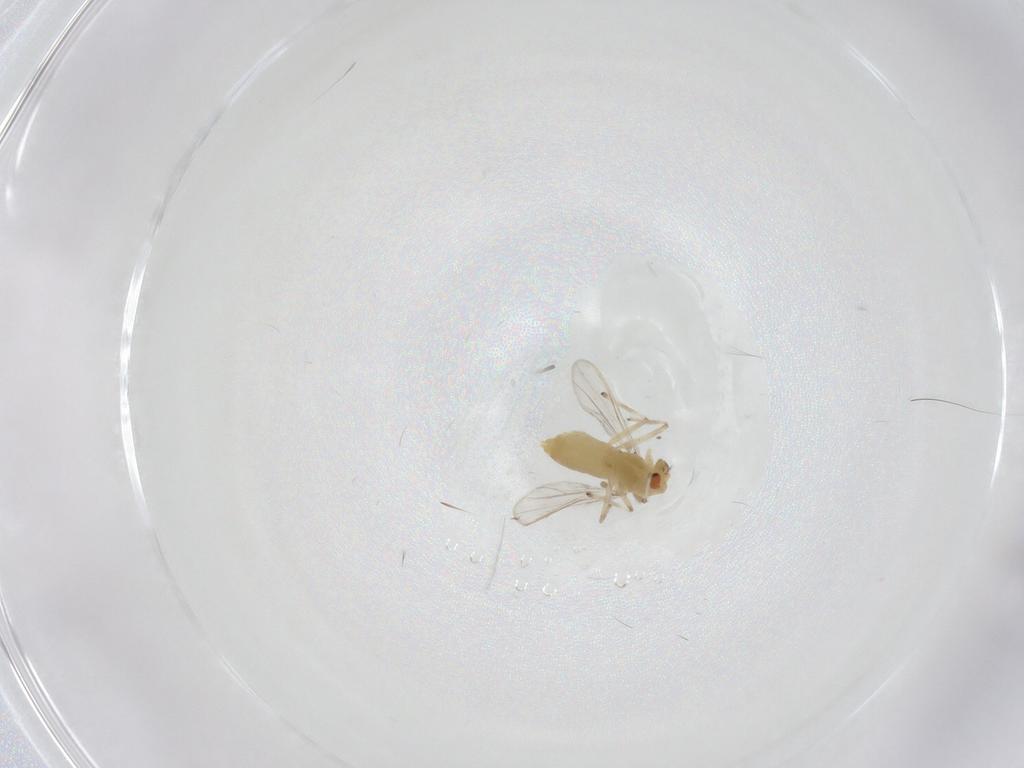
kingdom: Animalia
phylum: Arthropoda
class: Insecta
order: Diptera
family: Chironomidae
